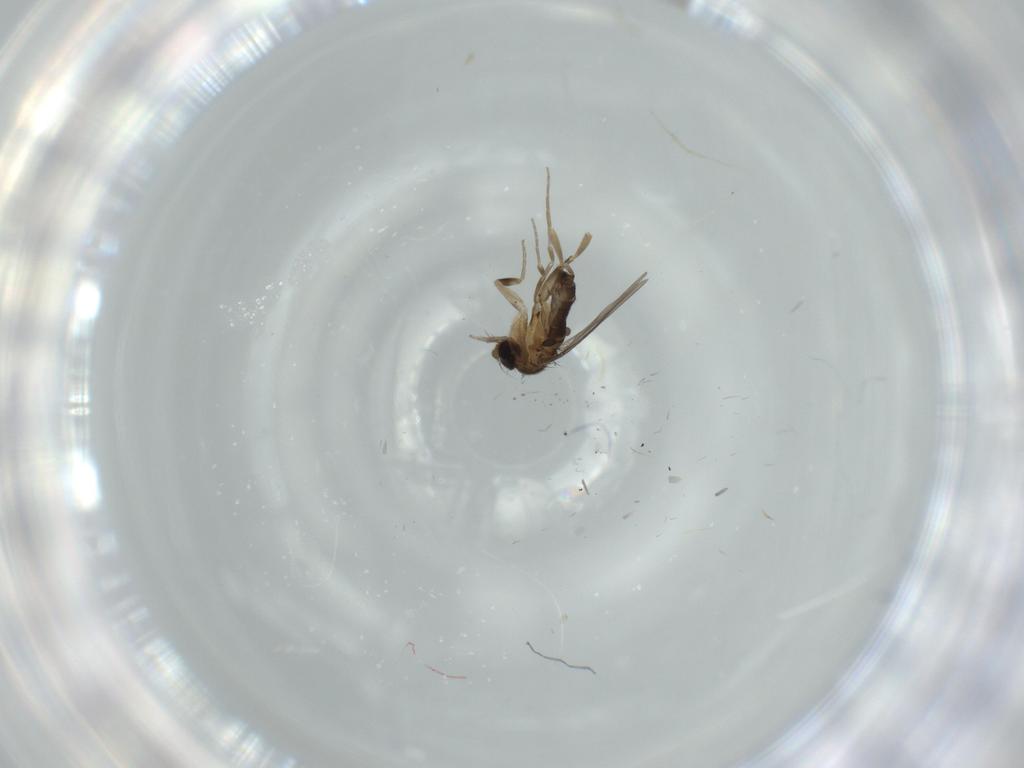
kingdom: Animalia
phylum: Arthropoda
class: Insecta
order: Diptera
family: Phoridae
